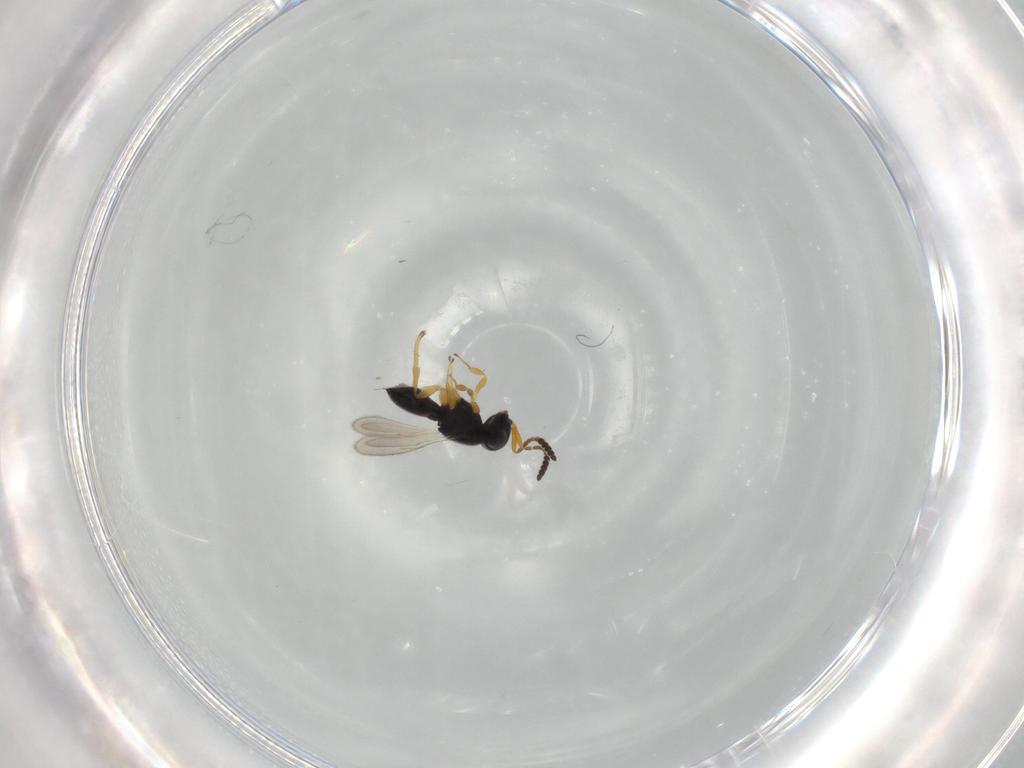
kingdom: Animalia
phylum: Arthropoda
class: Insecta
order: Hymenoptera
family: Scelionidae
